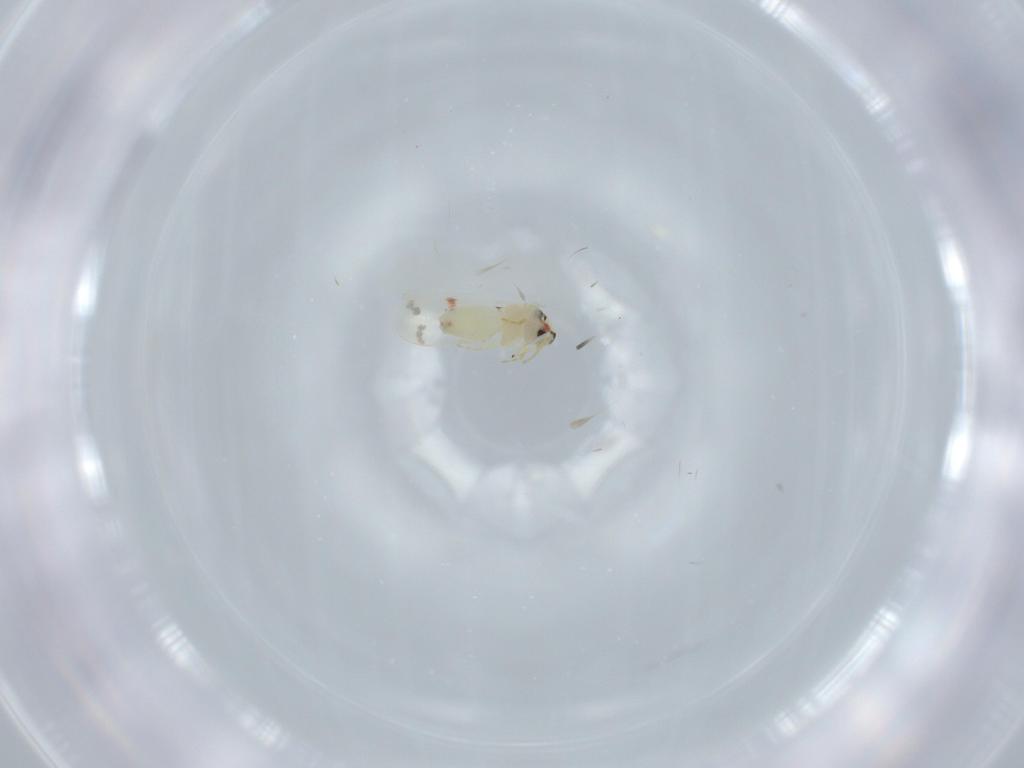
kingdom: Animalia
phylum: Arthropoda
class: Insecta
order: Hemiptera
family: Aleyrodidae
